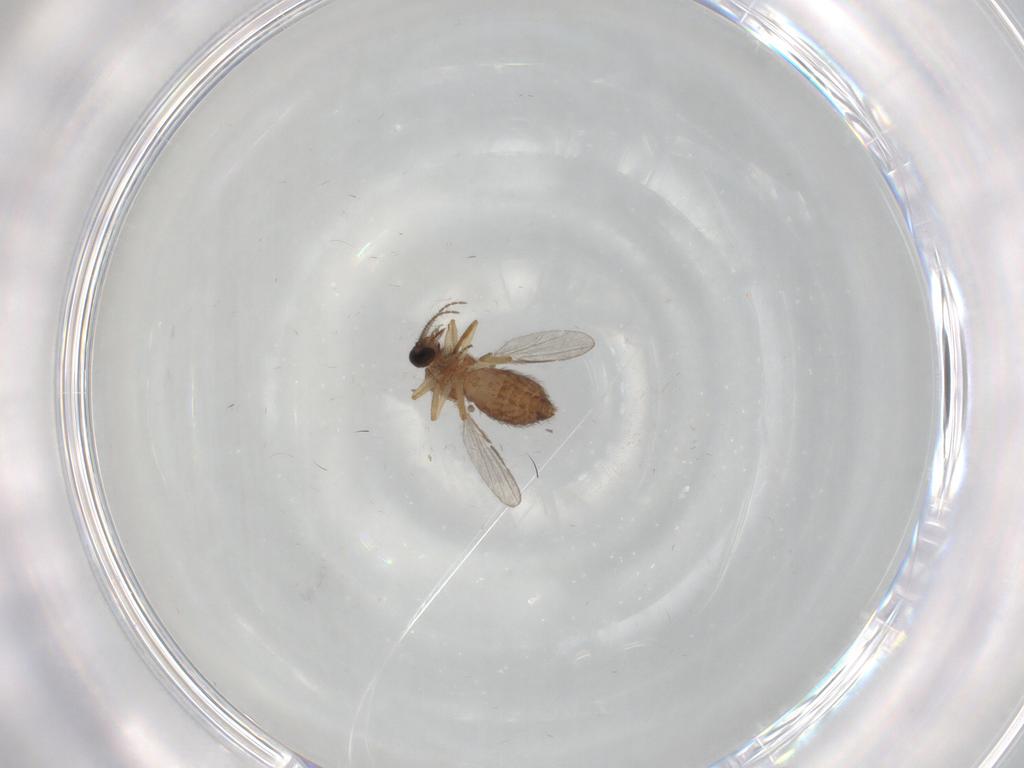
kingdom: Animalia
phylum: Arthropoda
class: Insecta
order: Diptera
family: Ceratopogonidae
